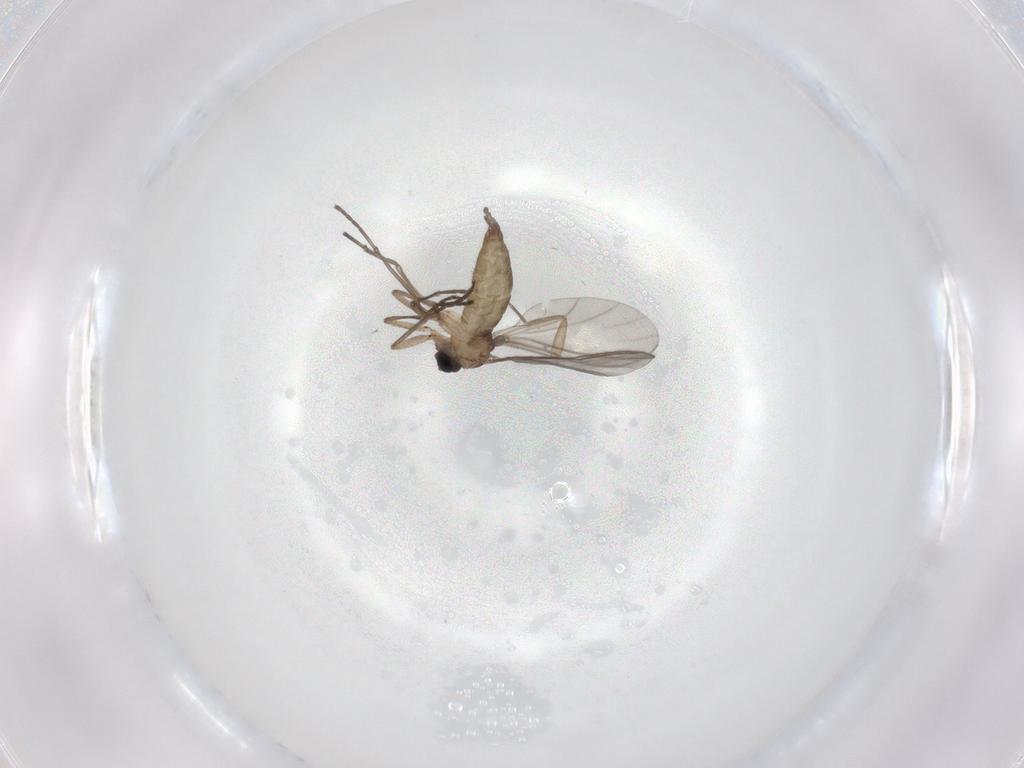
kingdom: Animalia
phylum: Arthropoda
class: Insecta
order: Diptera
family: Sciaridae
